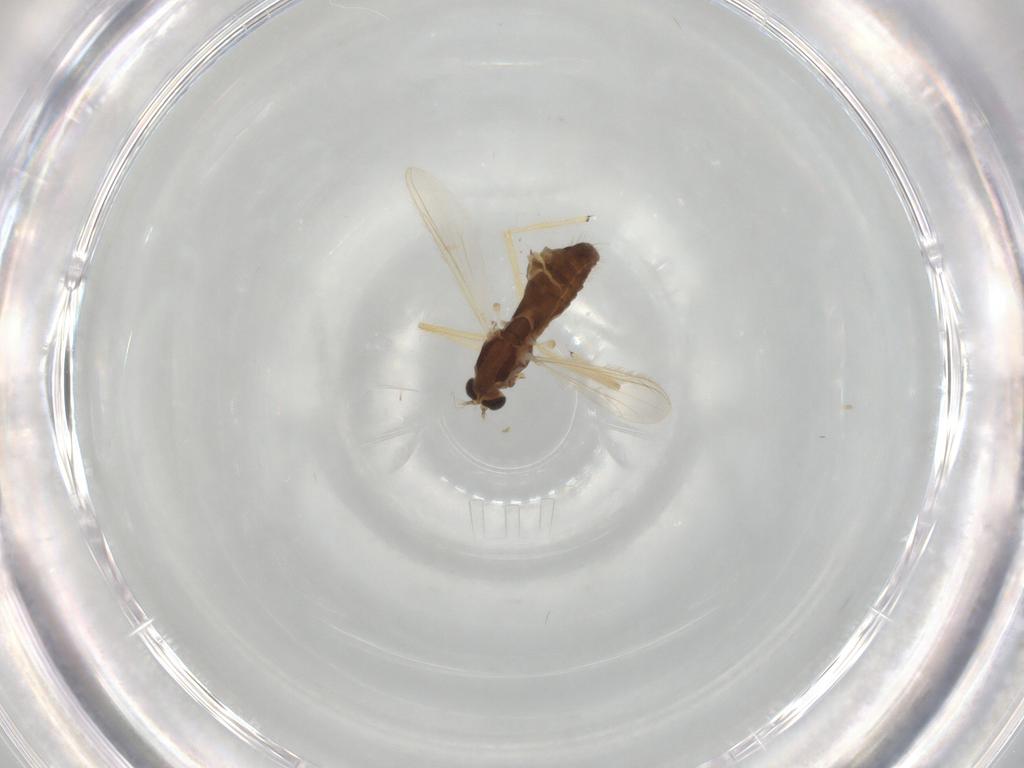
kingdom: Animalia
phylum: Arthropoda
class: Insecta
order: Diptera
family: Chironomidae
